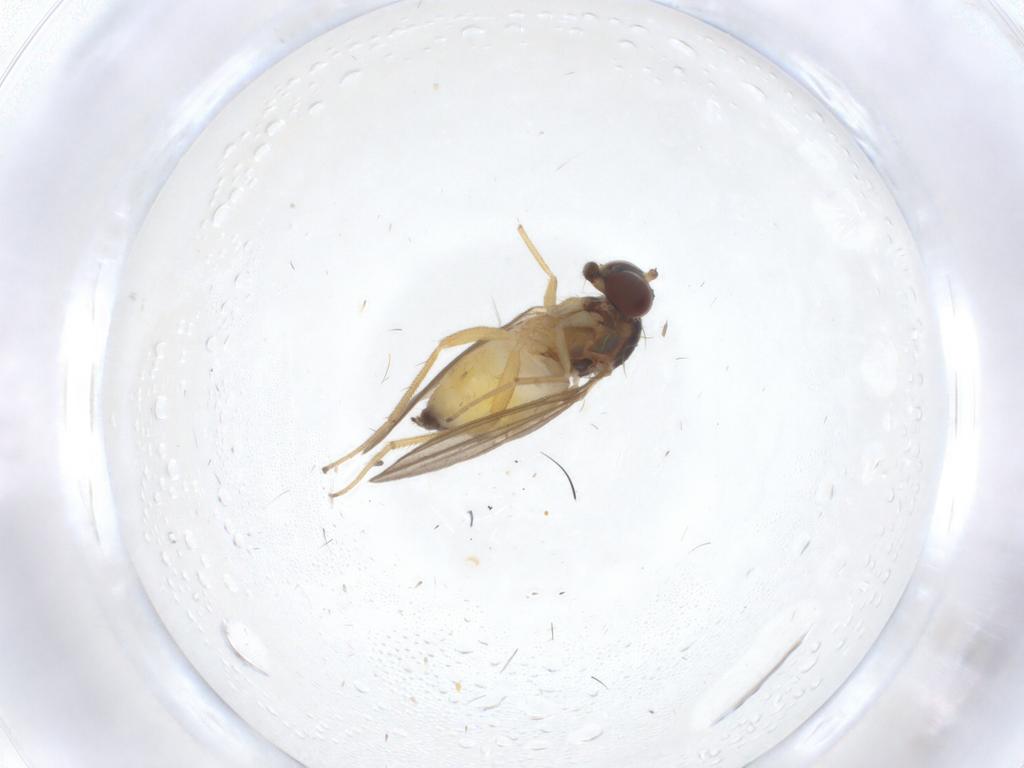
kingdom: Animalia
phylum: Arthropoda
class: Insecta
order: Diptera
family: Dolichopodidae
